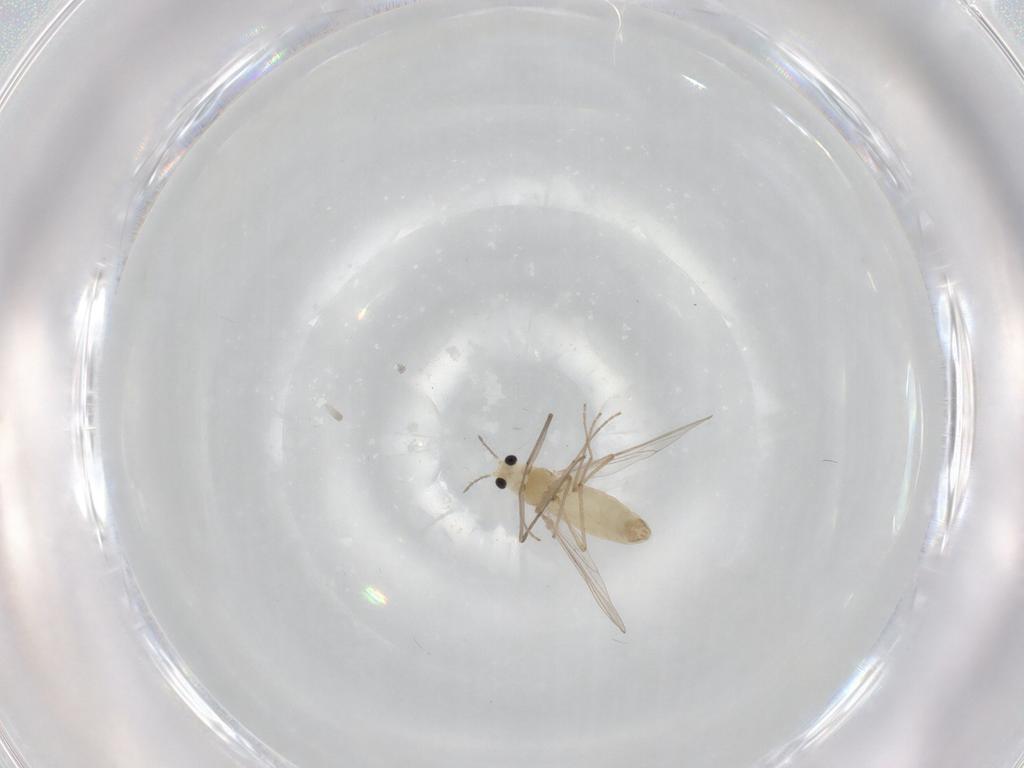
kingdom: Animalia
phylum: Arthropoda
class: Insecta
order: Diptera
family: Chironomidae
